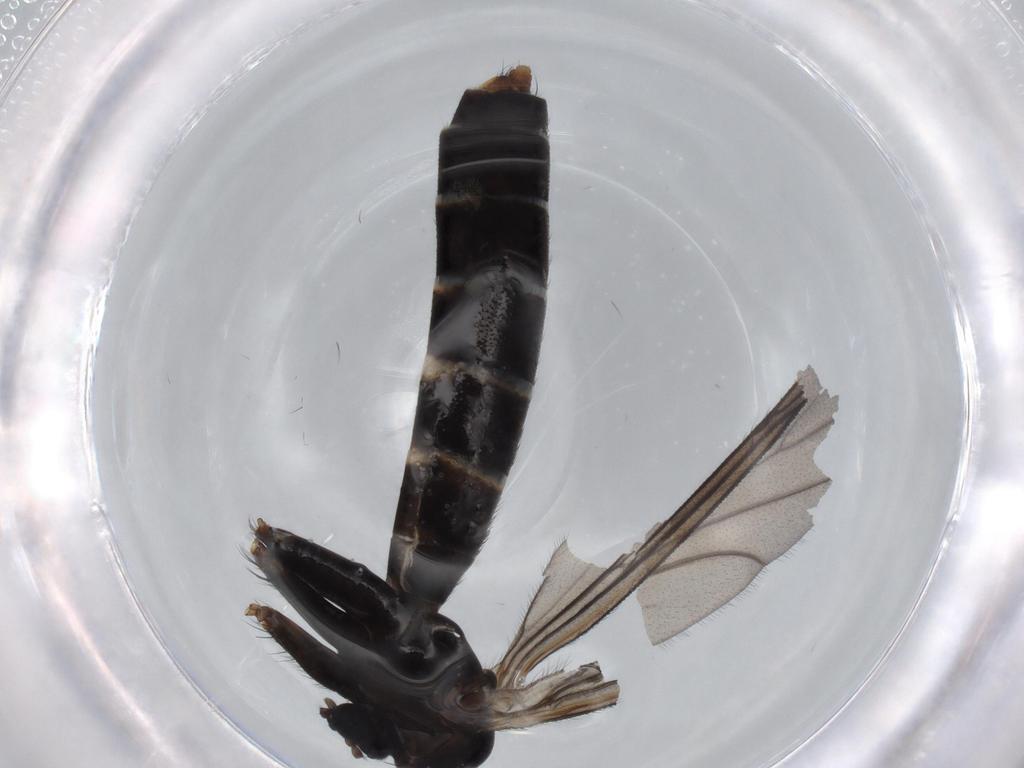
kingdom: Animalia
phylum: Arthropoda
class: Insecta
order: Diptera
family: Ditomyiidae
